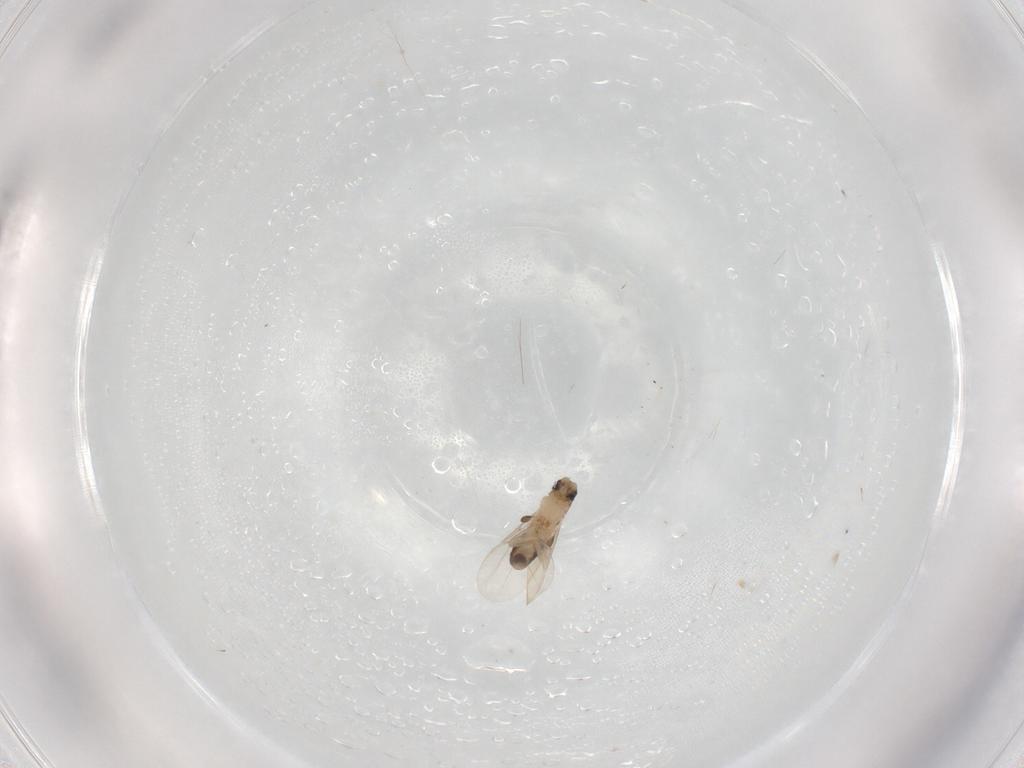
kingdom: Animalia
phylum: Arthropoda
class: Insecta
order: Diptera
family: Phoridae
